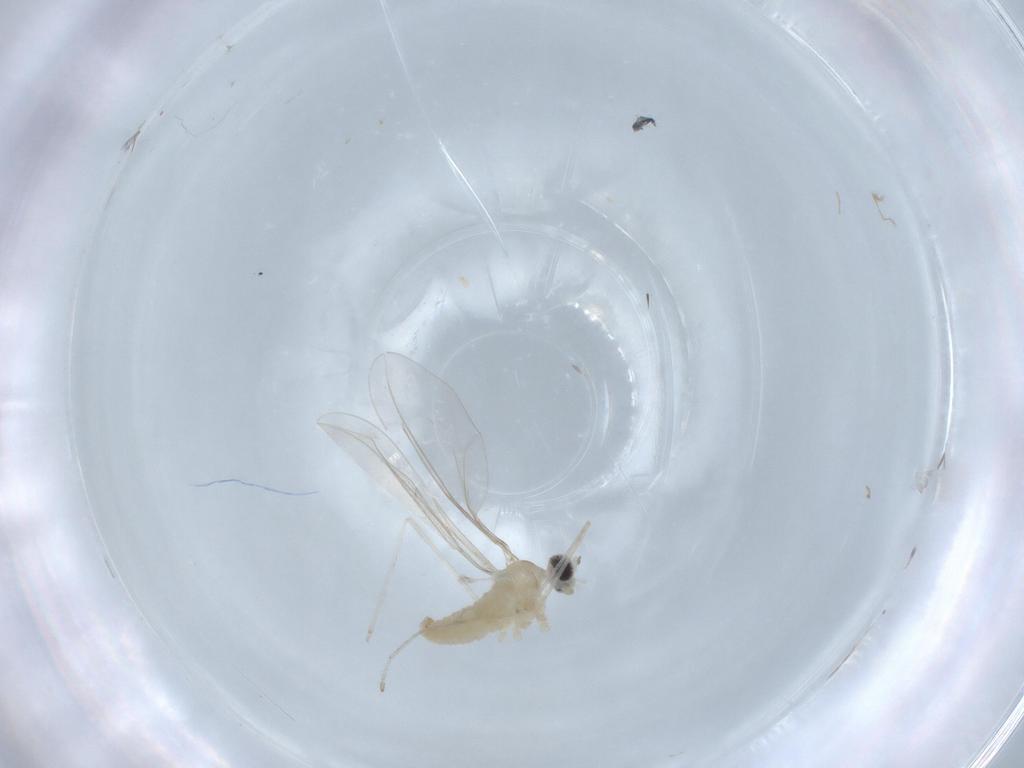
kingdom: Animalia
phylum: Arthropoda
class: Insecta
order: Diptera
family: Cecidomyiidae
